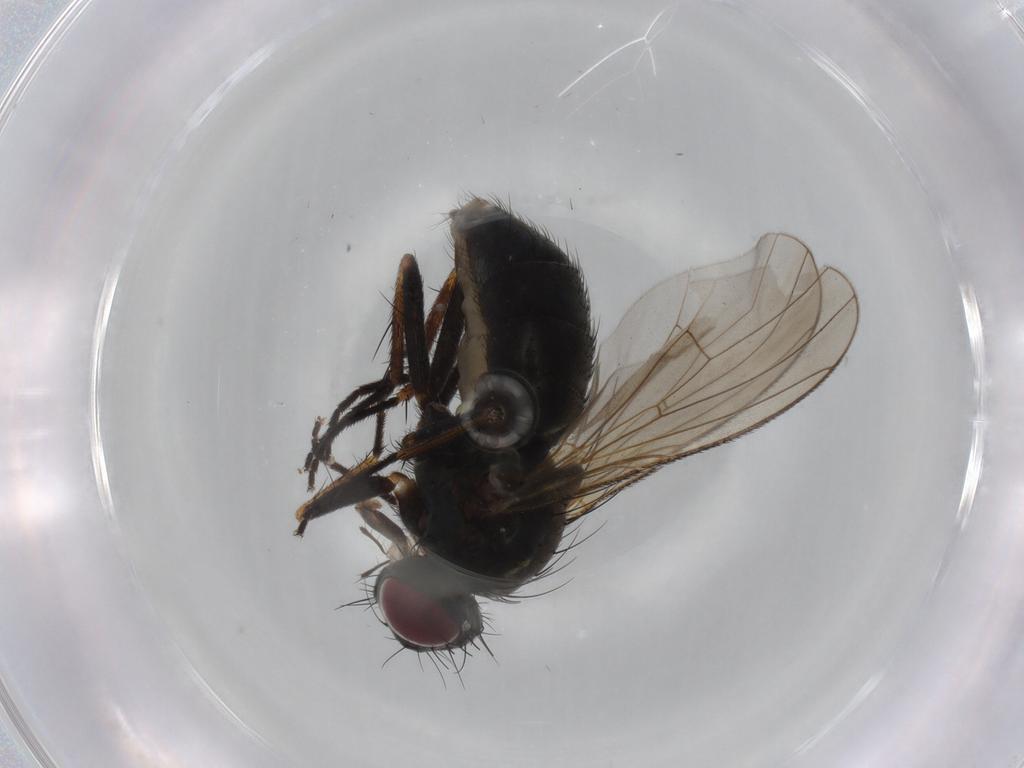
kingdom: Animalia
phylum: Arthropoda
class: Insecta
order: Diptera
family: Muscidae
